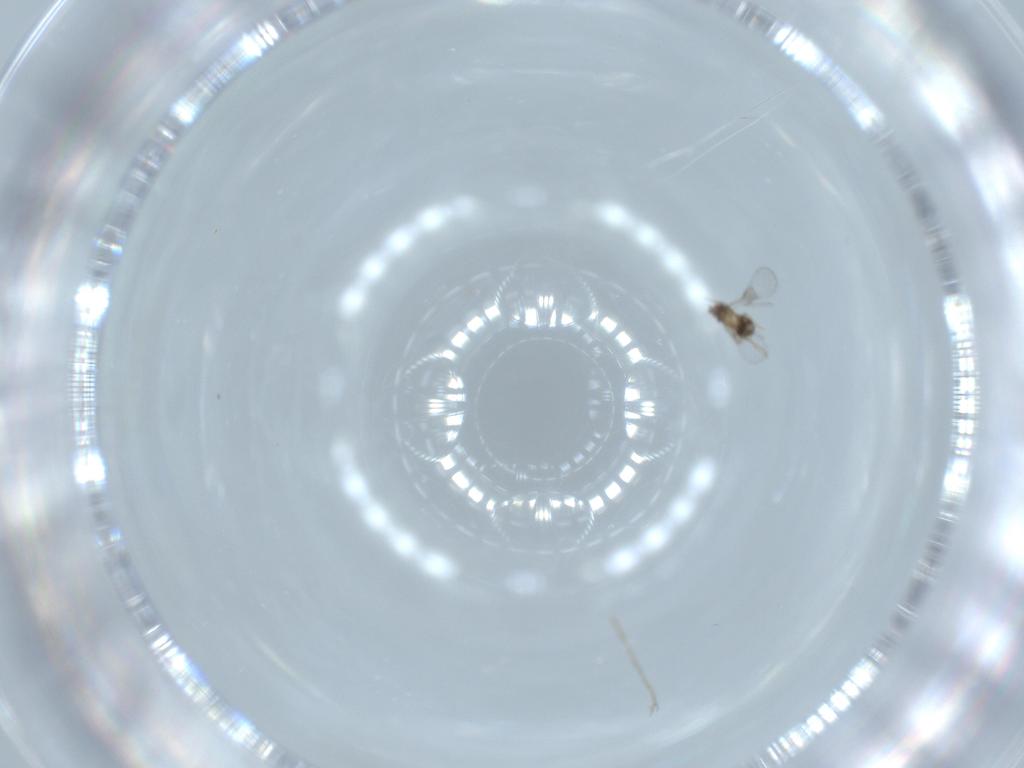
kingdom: Animalia
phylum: Arthropoda
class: Insecta
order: Hymenoptera
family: Trichogrammatidae
